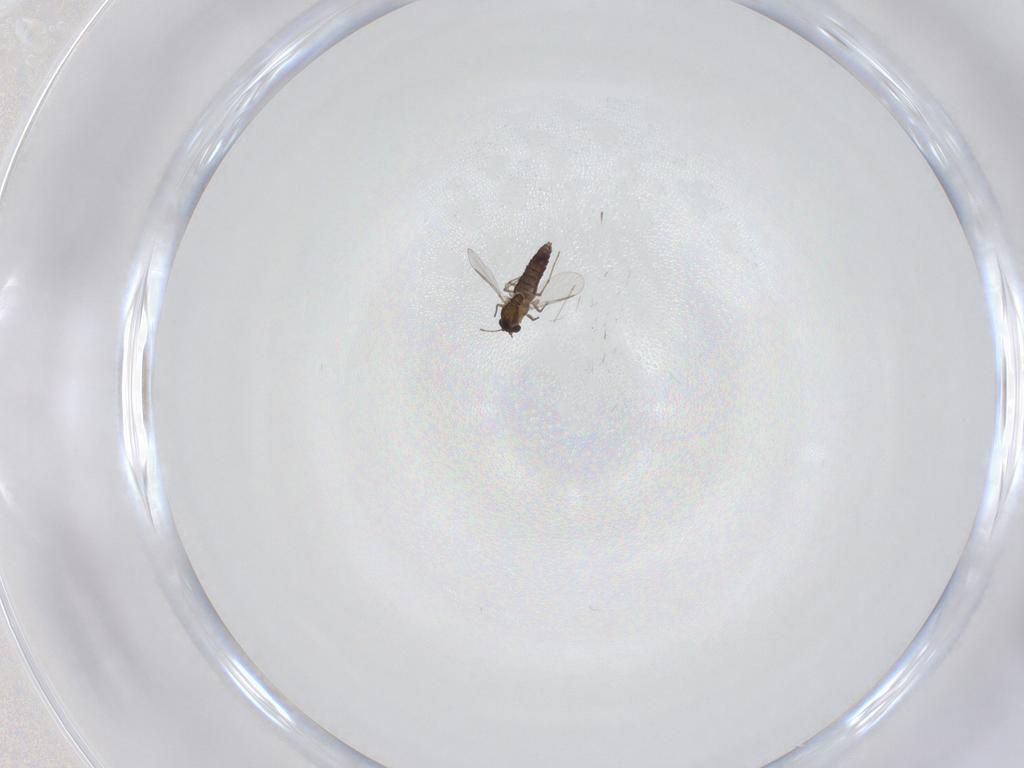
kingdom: Animalia
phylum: Arthropoda
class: Insecta
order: Diptera
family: Chironomidae
